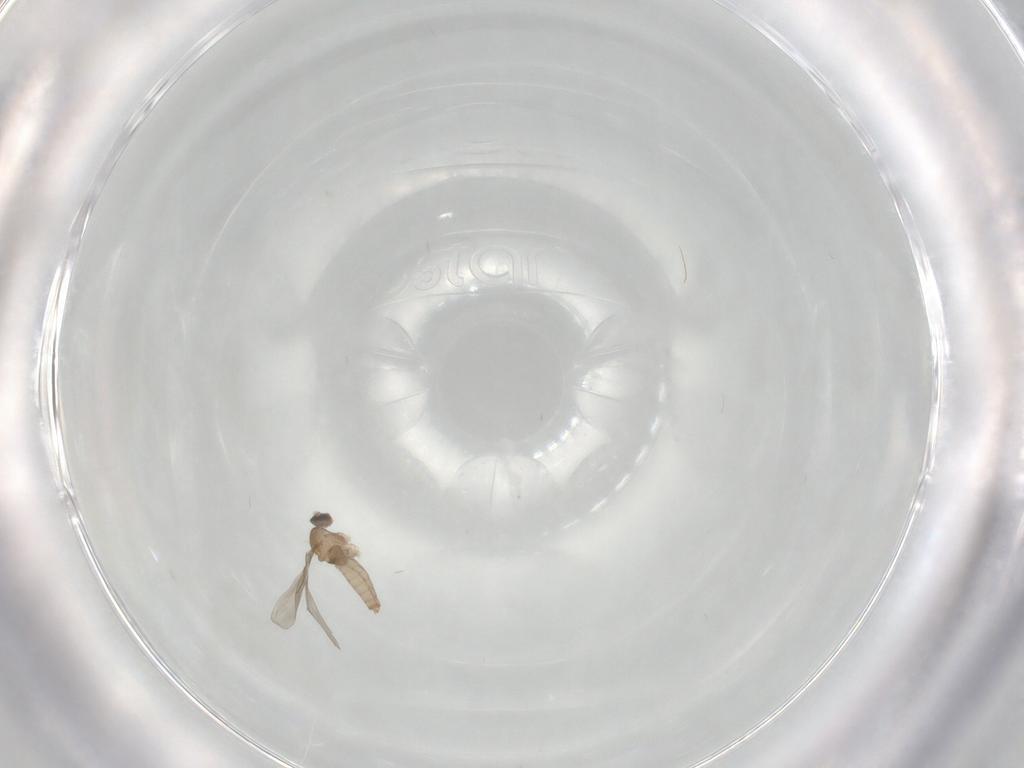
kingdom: Animalia
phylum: Arthropoda
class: Insecta
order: Diptera
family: Cecidomyiidae
